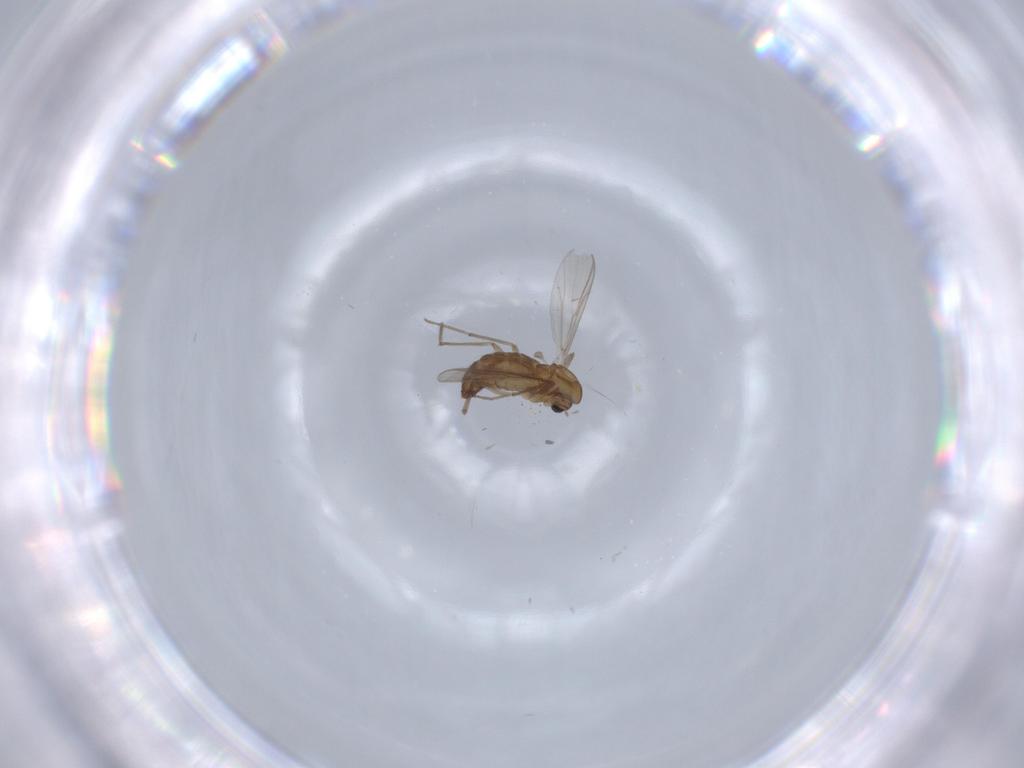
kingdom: Animalia
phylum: Arthropoda
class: Insecta
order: Diptera
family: Chironomidae
